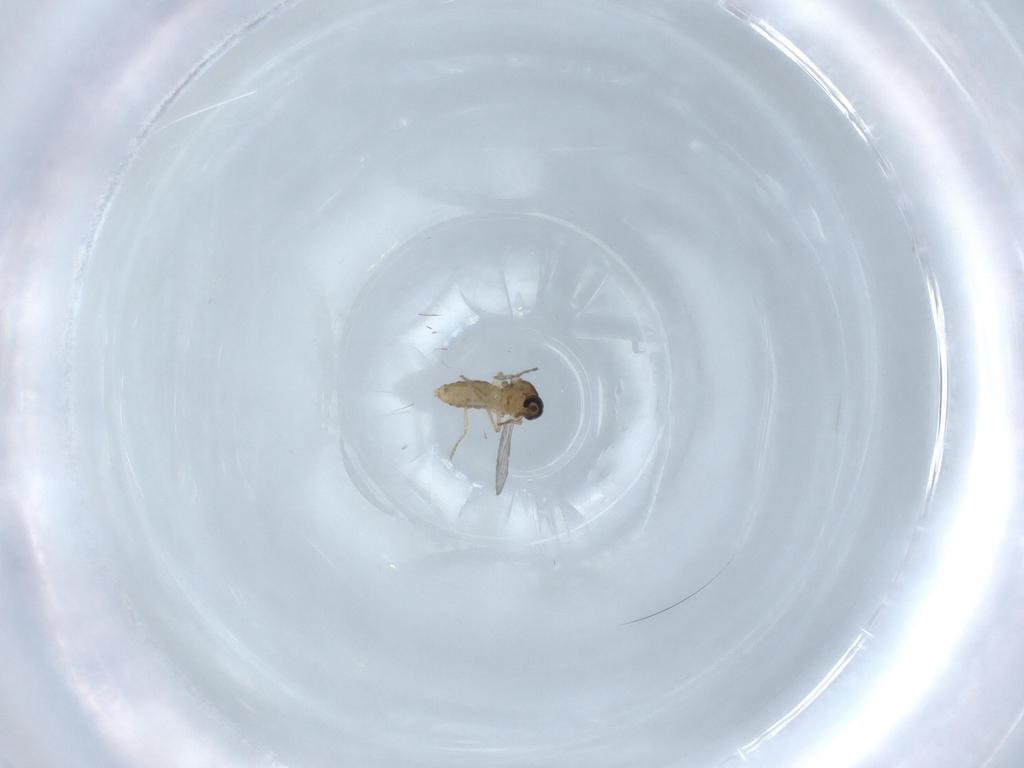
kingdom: Animalia
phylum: Arthropoda
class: Insecta
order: Diptera
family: Ceratopogonidae
